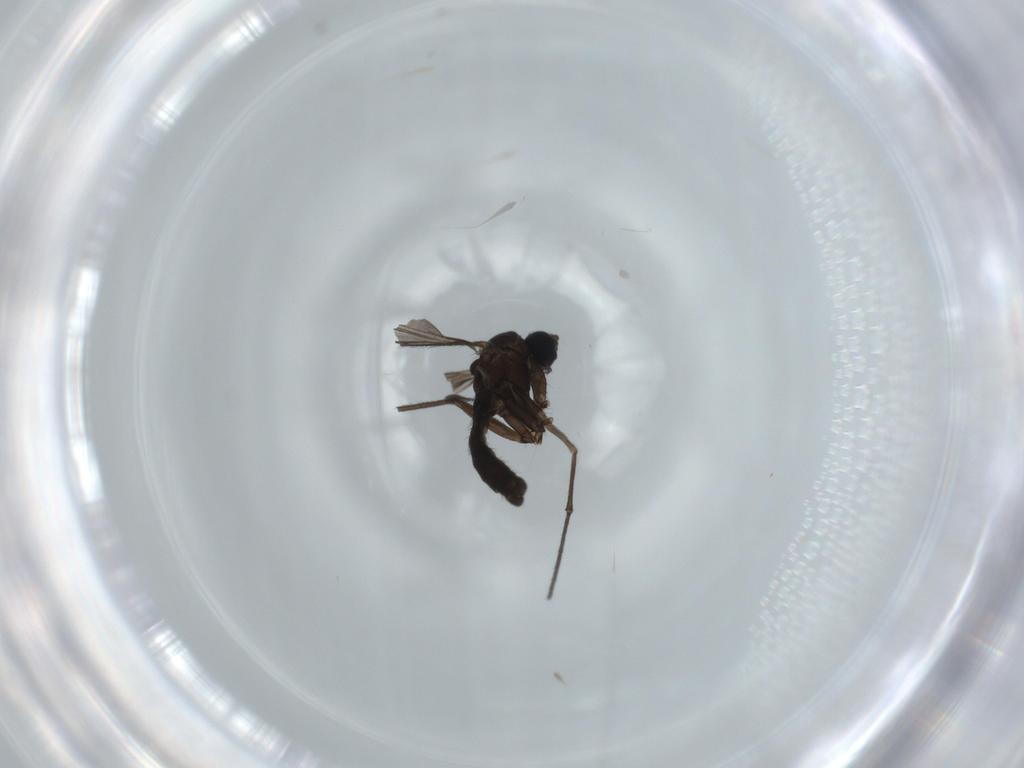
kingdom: Animalia
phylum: Arthropoda
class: Insecta
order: Diptera
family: Sciaridae
